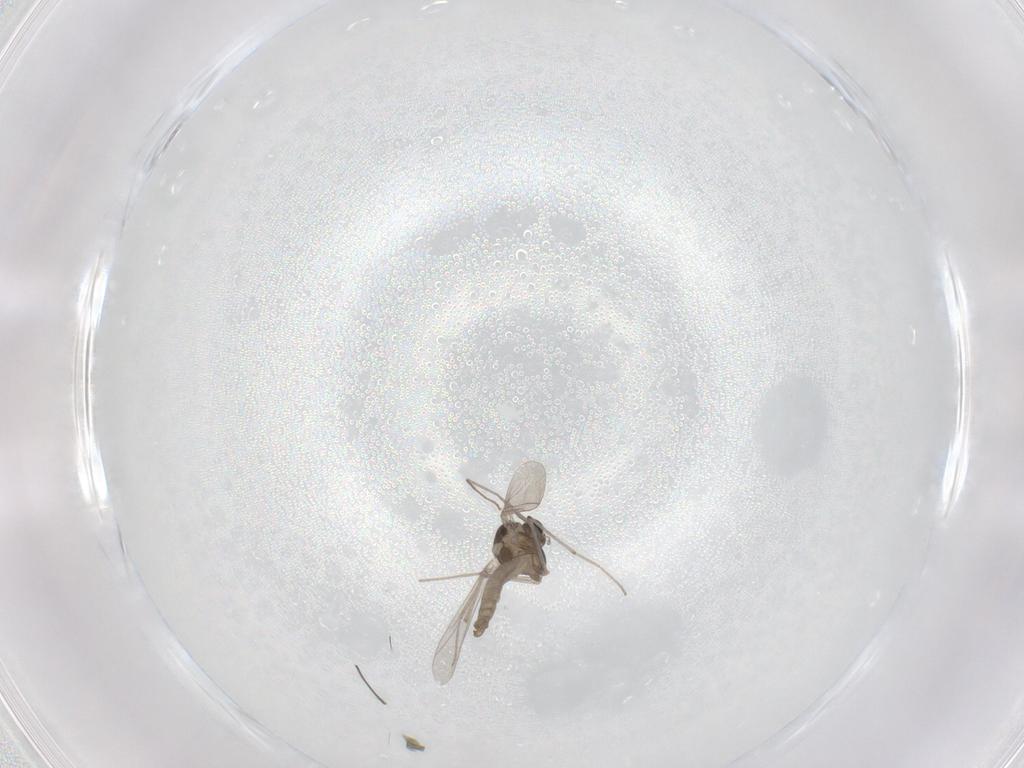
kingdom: Animalia
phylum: Arthropoda
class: Insecta
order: Diptera
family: Chironomidae
